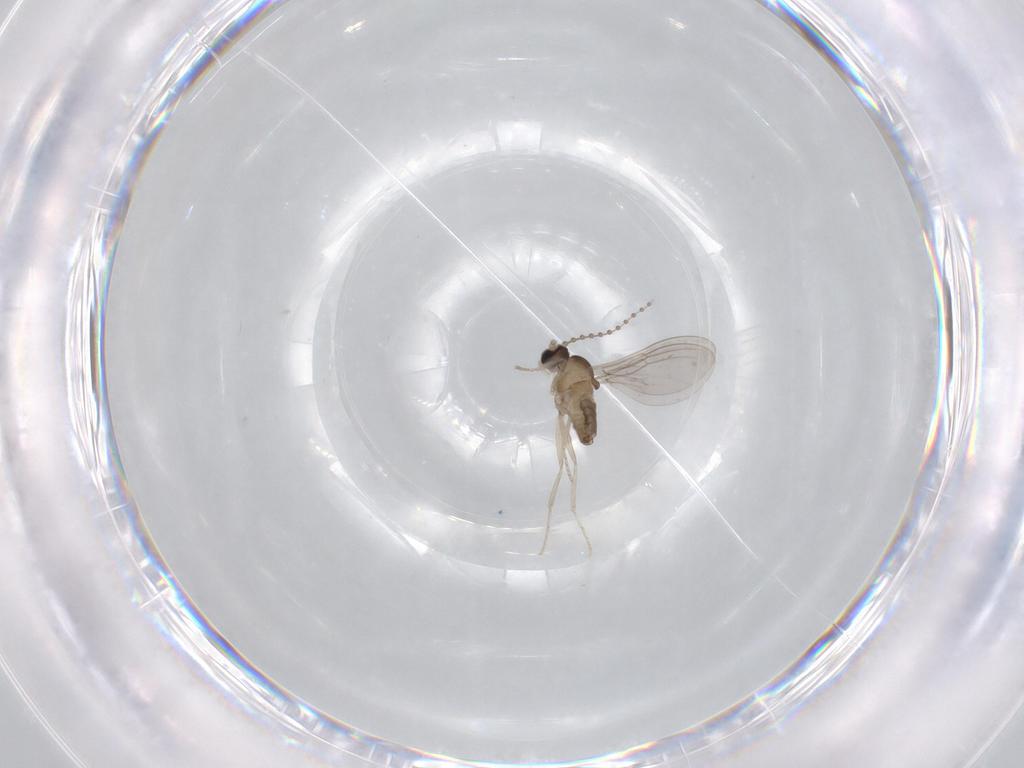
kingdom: Animalia
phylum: Arthropoda
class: Insecta
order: Diptera
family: Cecidomyiidae
